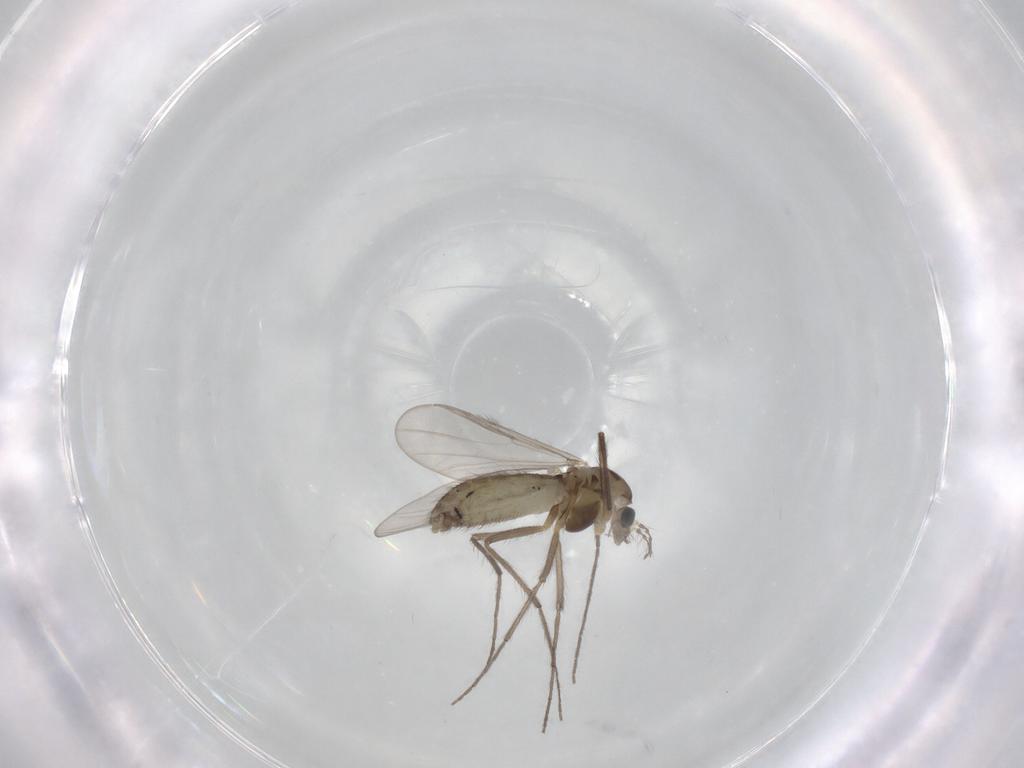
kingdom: Animalia
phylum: Arthropoda
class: Insecta
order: Diptera
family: Chironomidae
